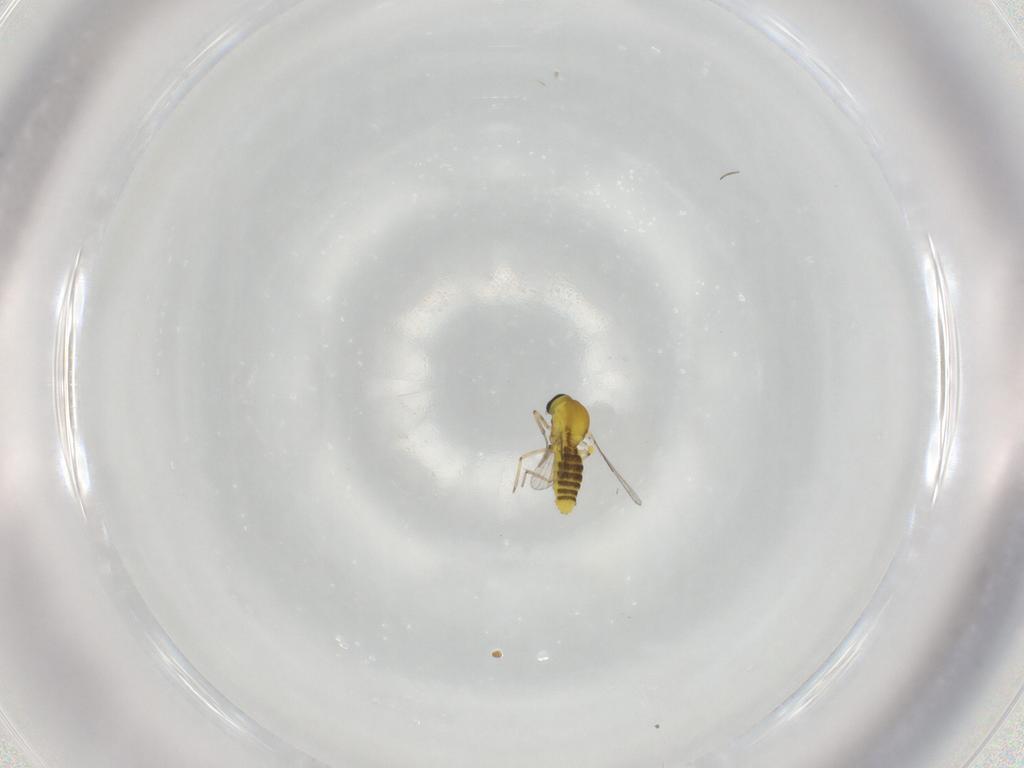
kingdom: Animalia
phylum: Arthropoda
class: Insecta
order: Diptera
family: Ceratopogonidae
